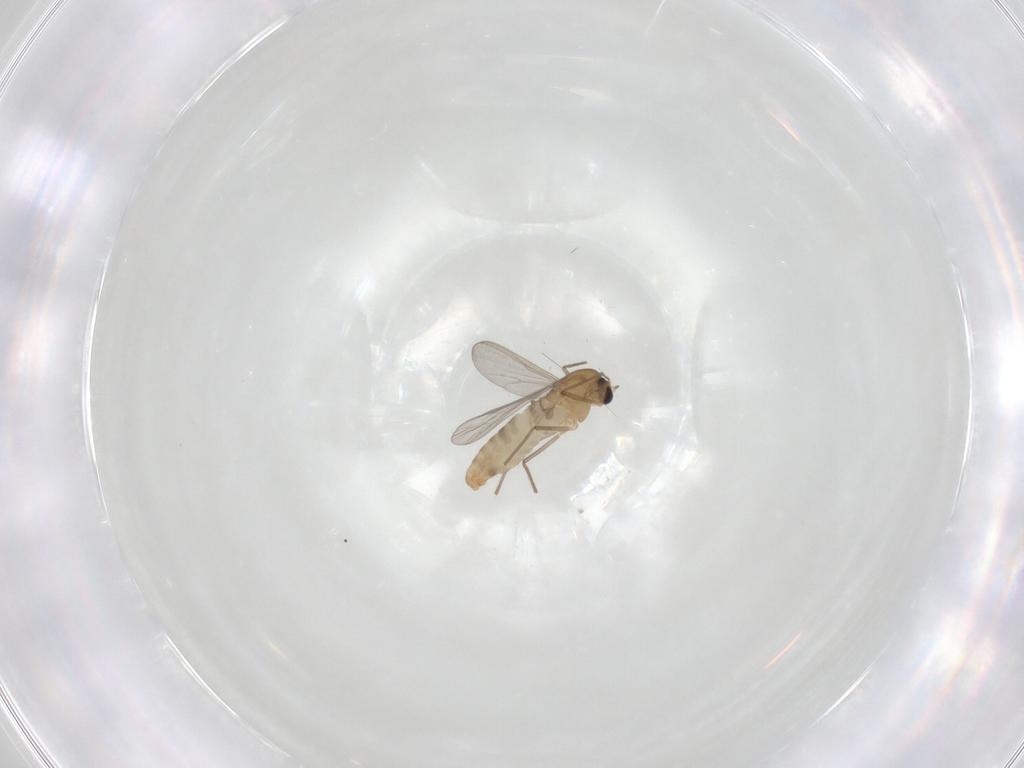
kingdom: Animalia
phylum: Arthropoda
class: Insecta
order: Diptera
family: Chironomidae
